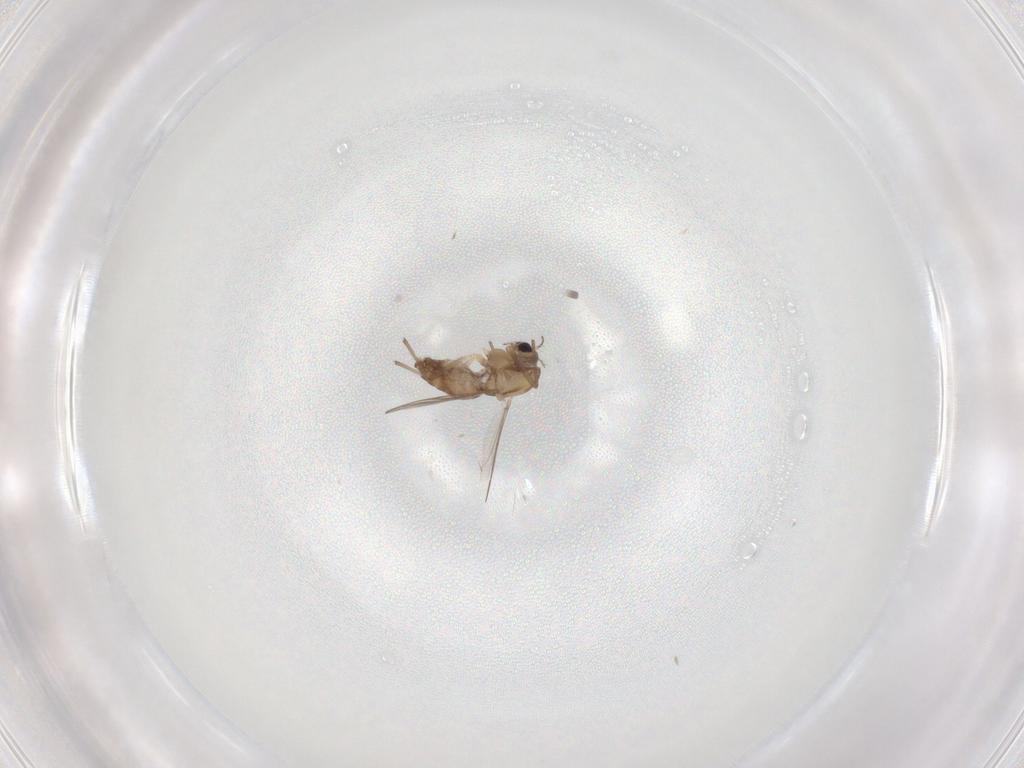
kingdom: Animalia
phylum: Arthropoda
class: Insecta
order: Diptera
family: Chironomidae
